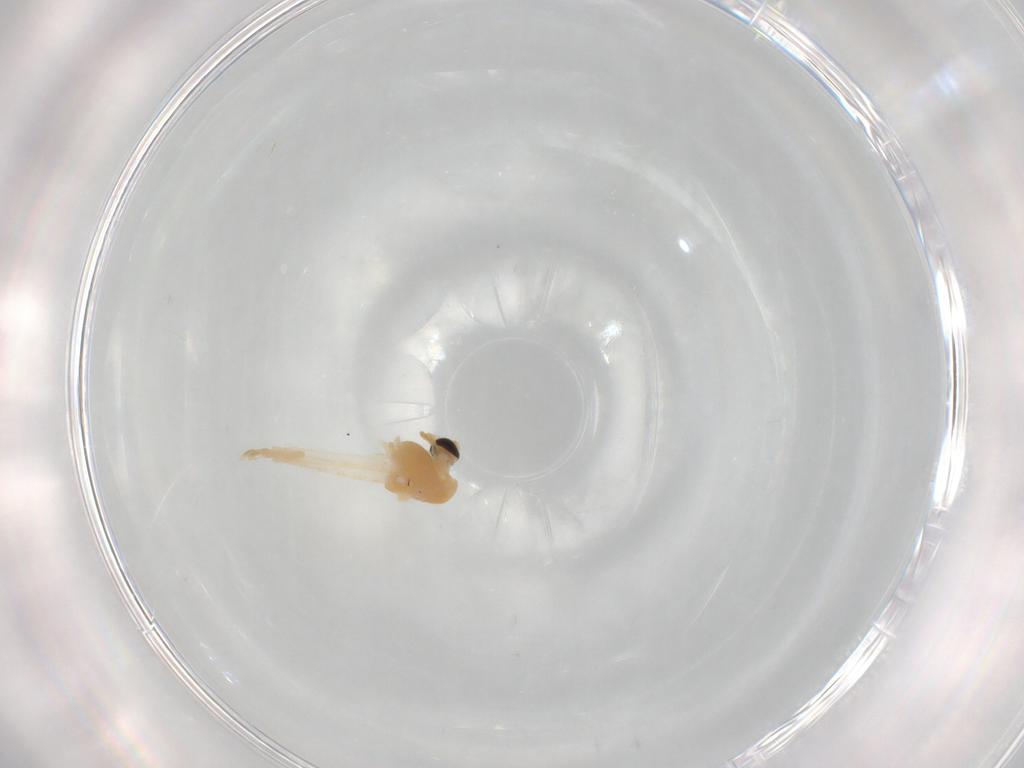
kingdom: Animalia
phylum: Arthropoda
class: Insecta
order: Diptera
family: Chironomidae
